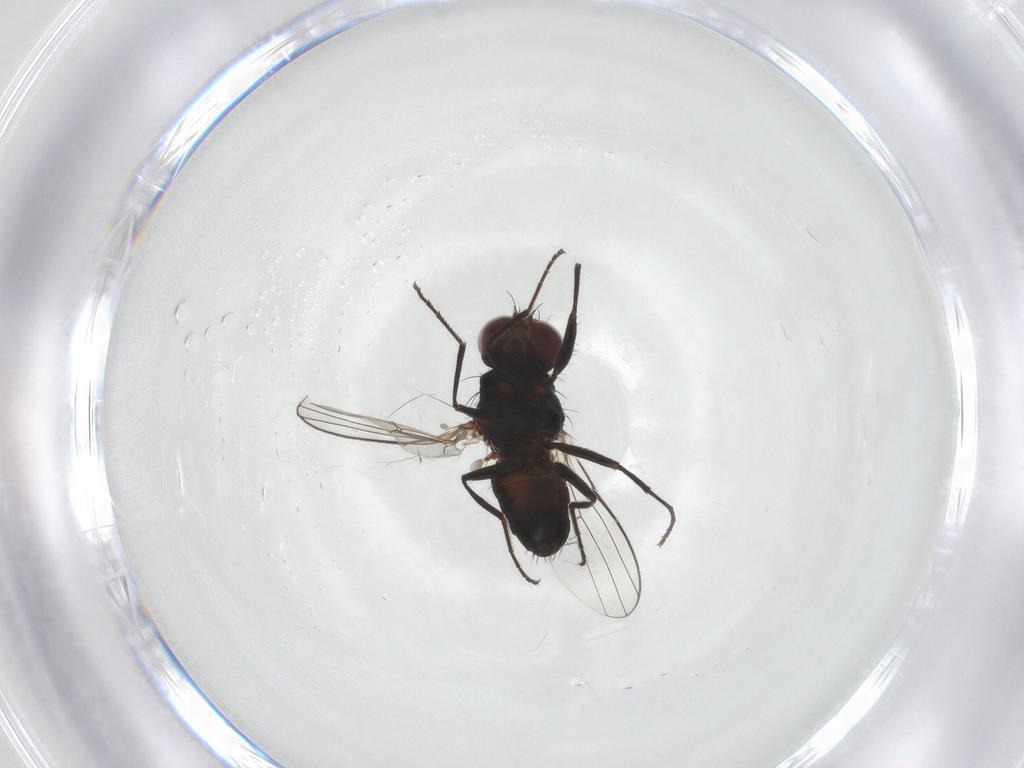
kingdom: Animalia
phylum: Arthropoda
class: Insecta
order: Diptera
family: Carnidae
